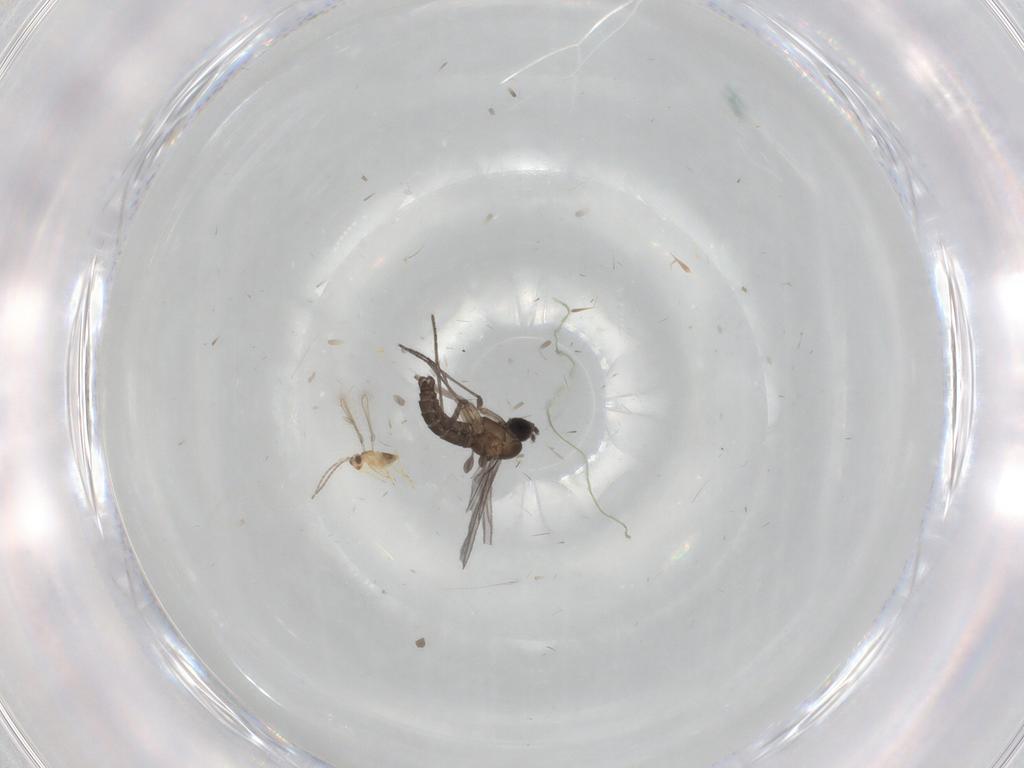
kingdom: Animalia
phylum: Arthropoda
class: Insecta
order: Diptera
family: Sciaridae
